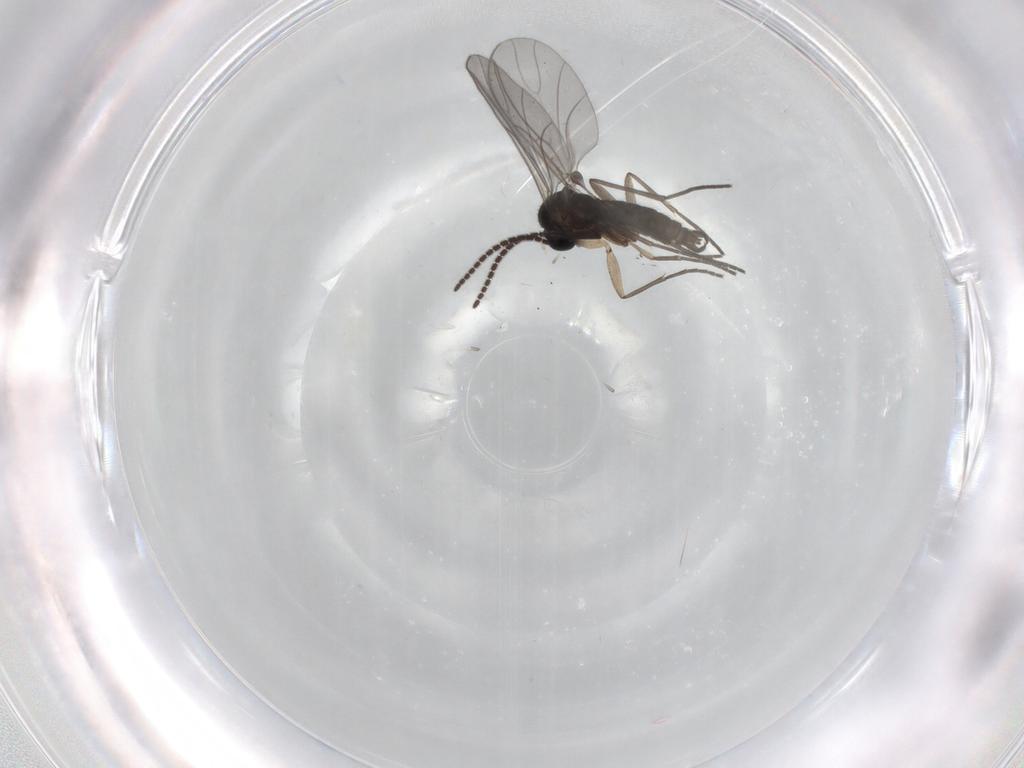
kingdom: Animalia
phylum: Arthropoda
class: Insecta
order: Diptera
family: Sciaridae
